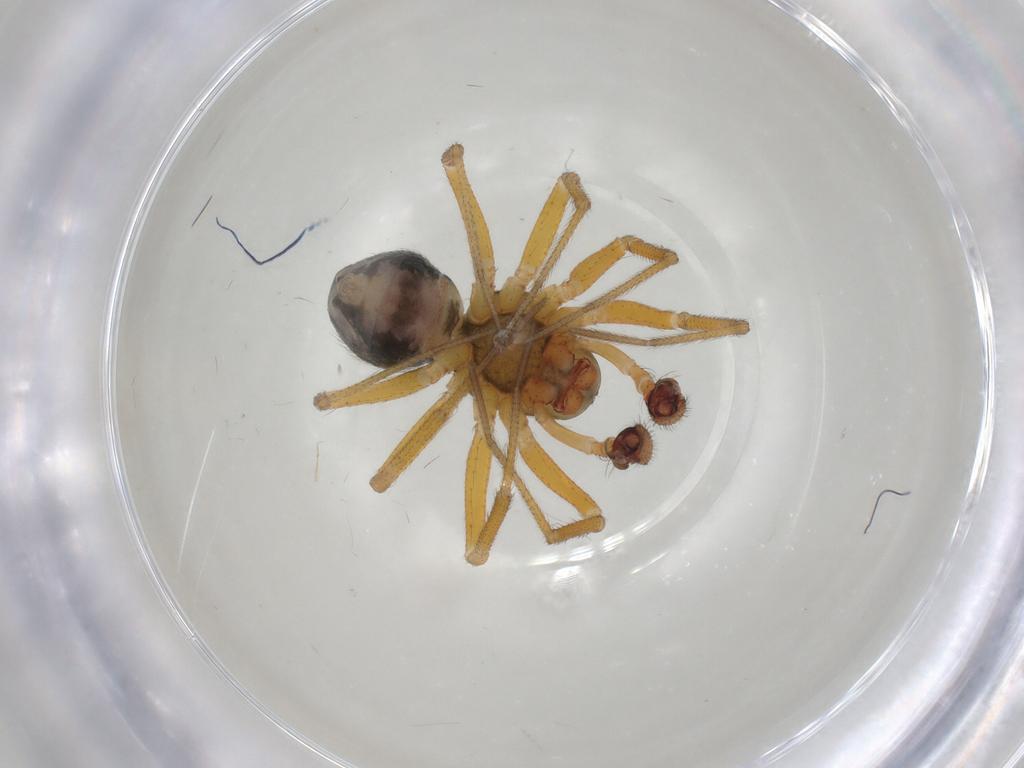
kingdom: Animalia
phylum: Arthropoda
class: Arachnida
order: Araneae
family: Linyphiidae
